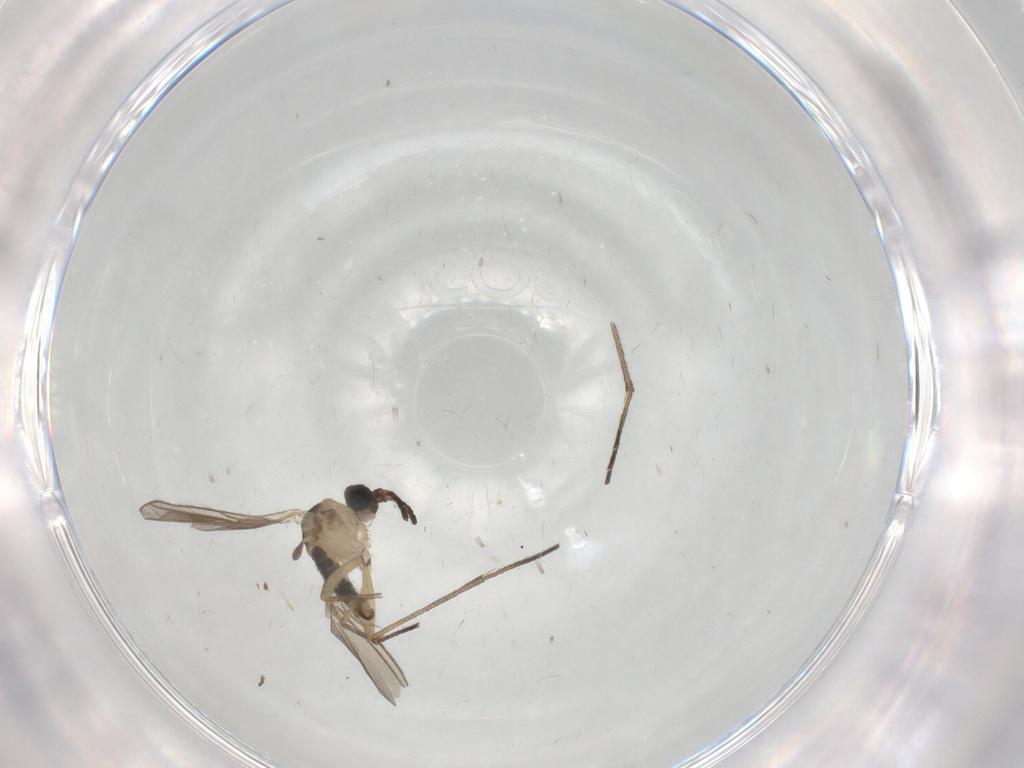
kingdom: Animalia
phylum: Arthropoda
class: Insecta
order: Diptera
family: Sciaridae
